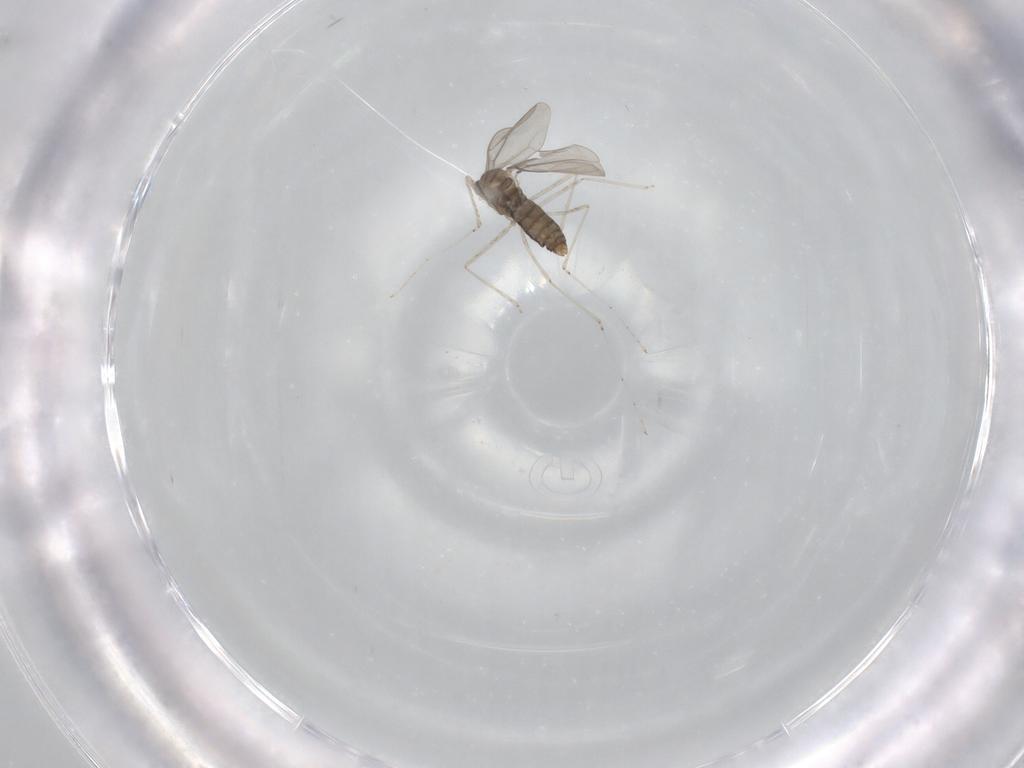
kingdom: Animalia
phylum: Arthropoda
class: Insecta
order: Diptera
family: Cecidomyiidae
